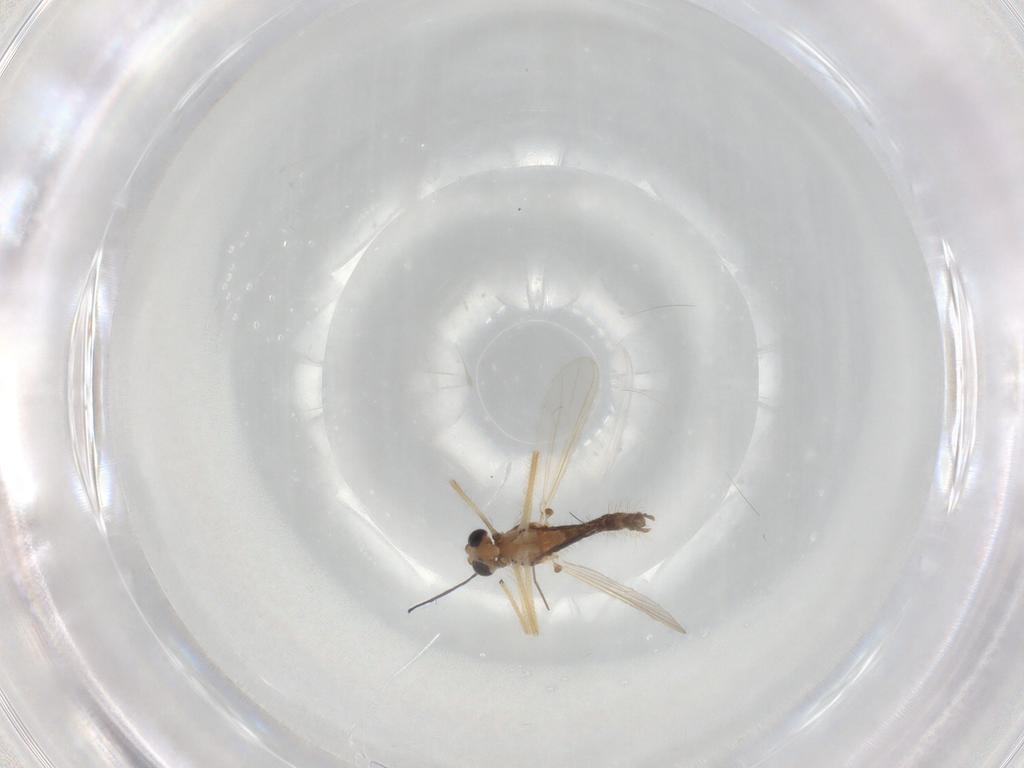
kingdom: Animalia
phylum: Arthropoda
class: Insecta
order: Diptera
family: Chironomidae
